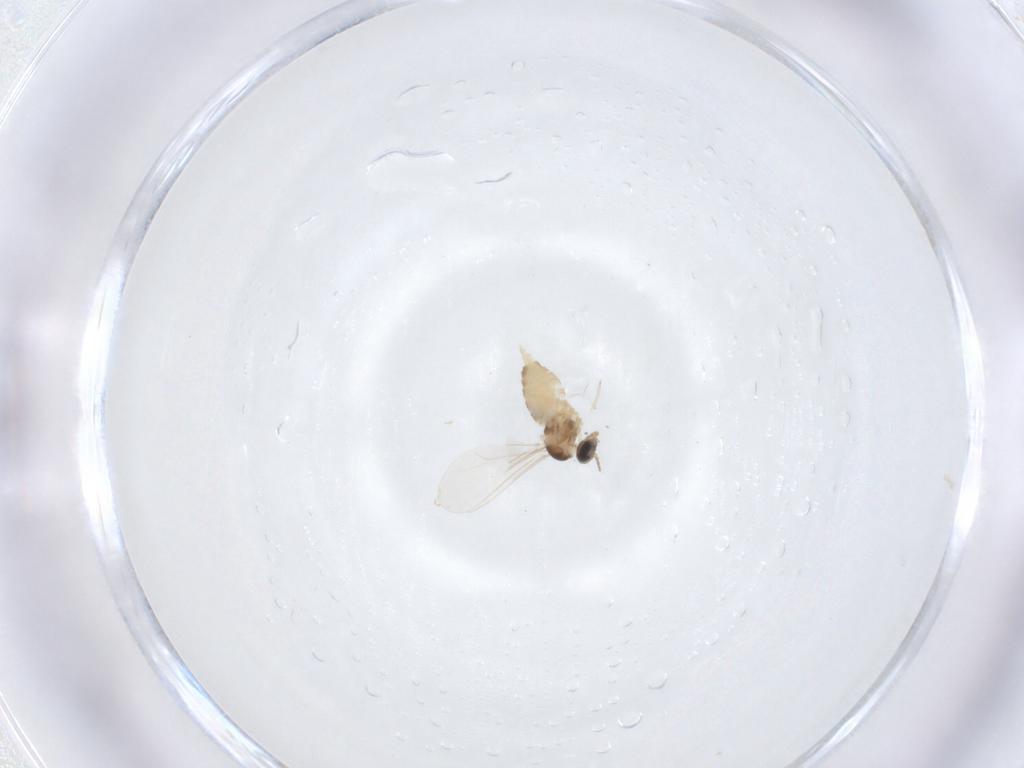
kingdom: Animalia
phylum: Arthropoda
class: Insecta
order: Diptera
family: Cecidomyiidae
